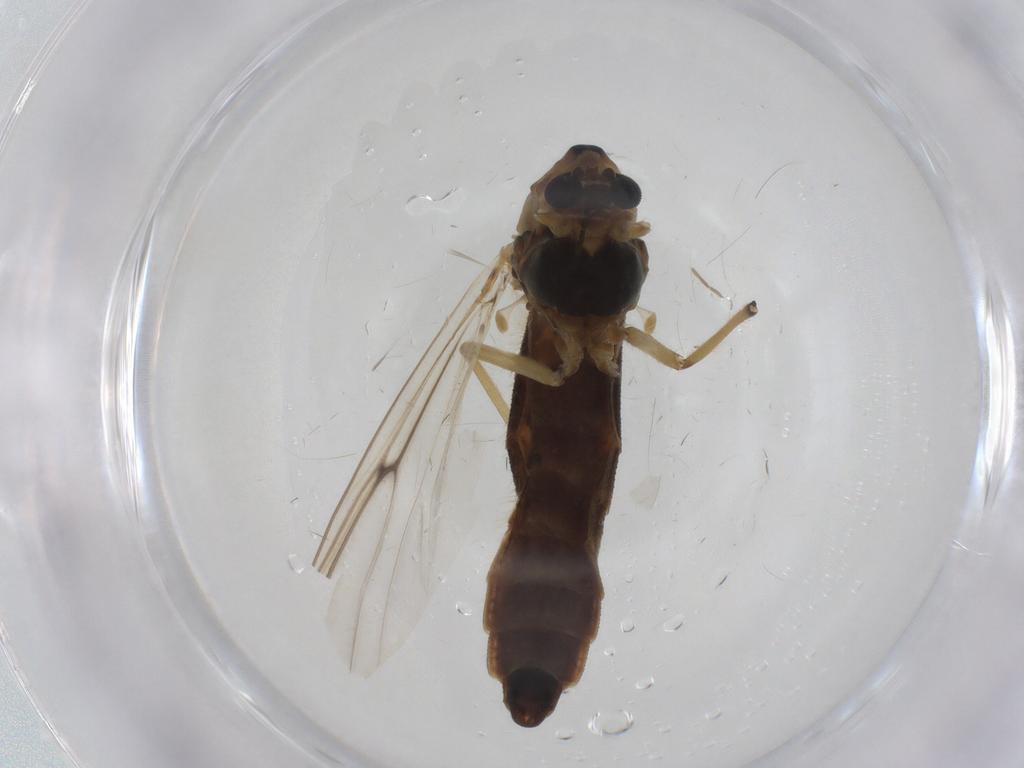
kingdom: Animalia
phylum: Arthropoda
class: Insecta
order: Diptera
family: Chironomidae
